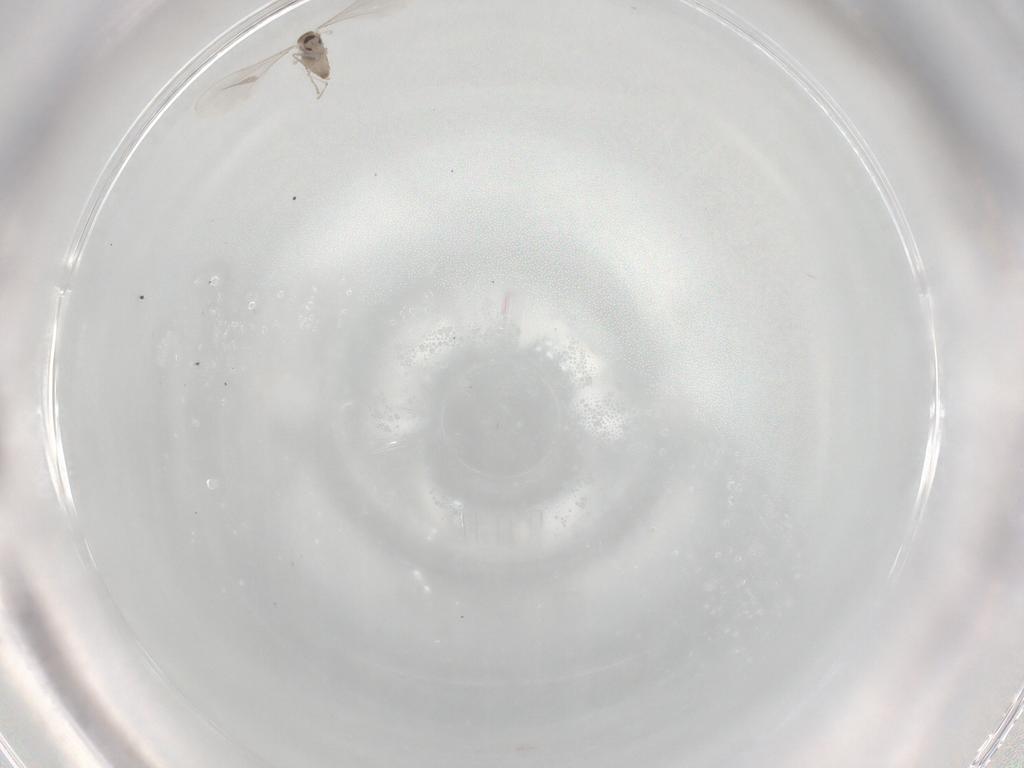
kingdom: Animalia
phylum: Arthropoda
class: Insecta
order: Diptera
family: Cecidomyiidae
